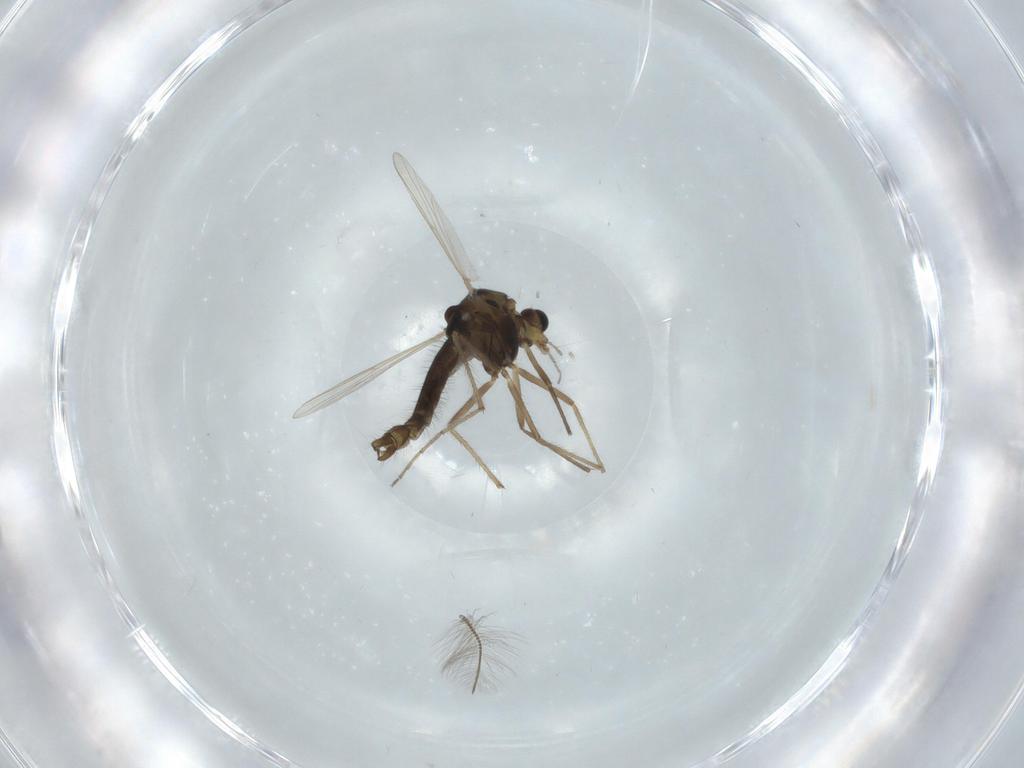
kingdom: Animalia
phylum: Arthropoda
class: Insecta
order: Diptera
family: Chironomidae
